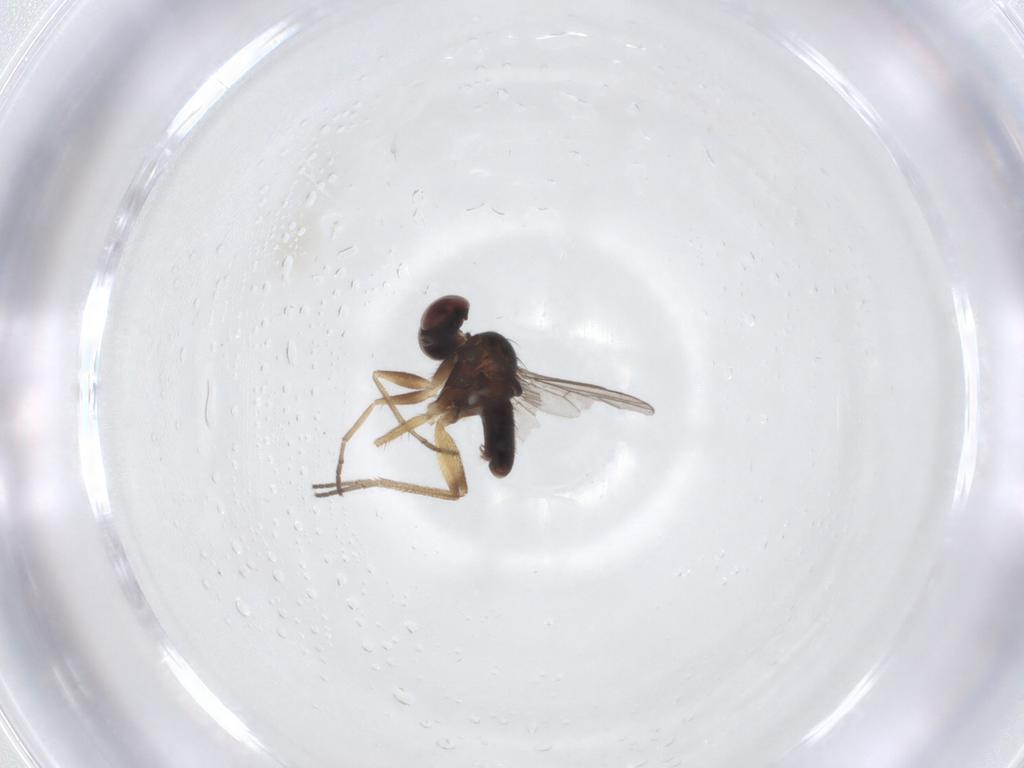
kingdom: Animalia
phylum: Arthropoda
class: Insecta
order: Diptera
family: Dolichopodidae
